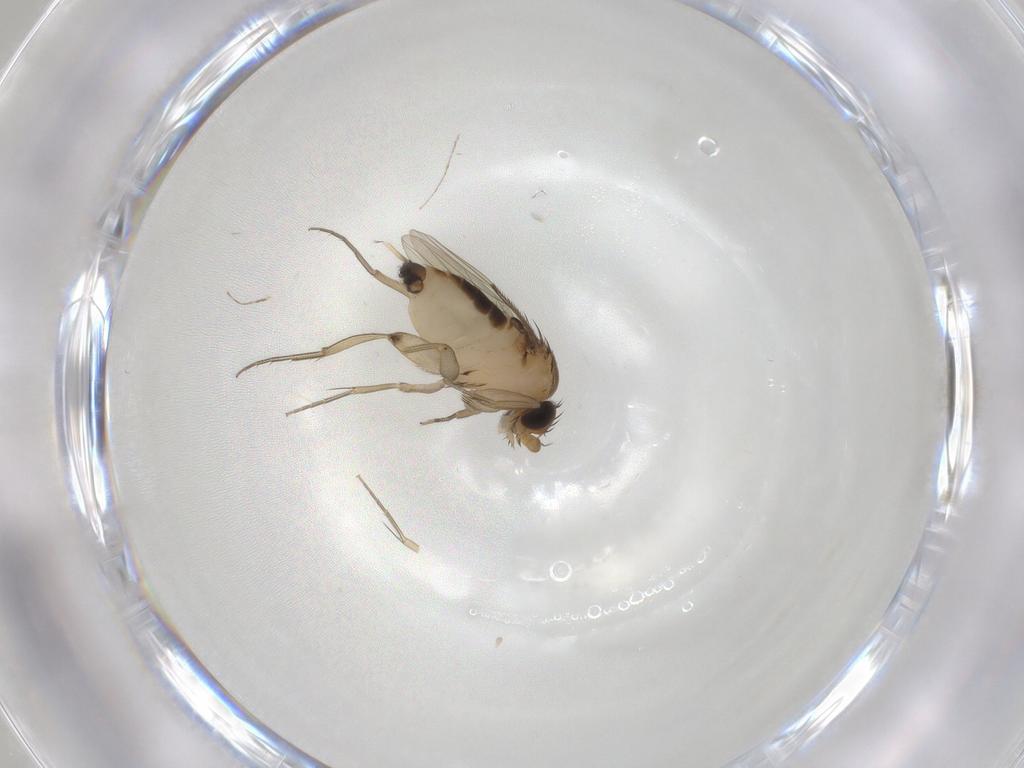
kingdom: Animalia
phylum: Arthropoda
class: Insecta
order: Diptera
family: Phoridae
